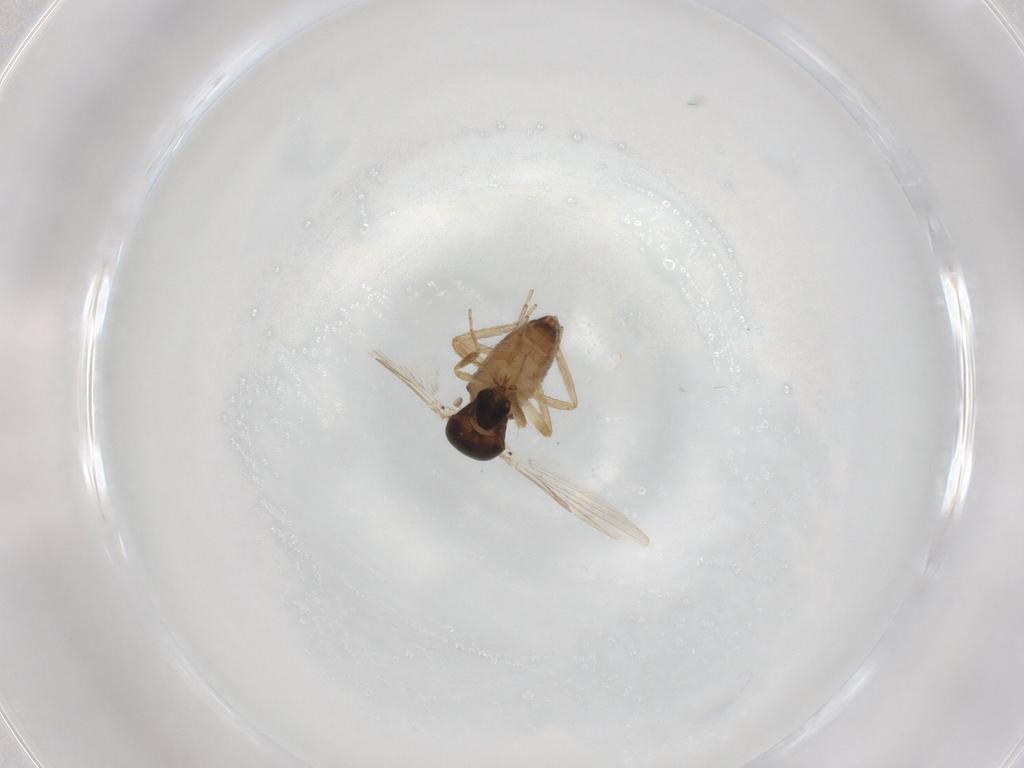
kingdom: Animalia
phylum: Arthropoda
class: Insecta
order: Diptera
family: Ceratopogonidae
